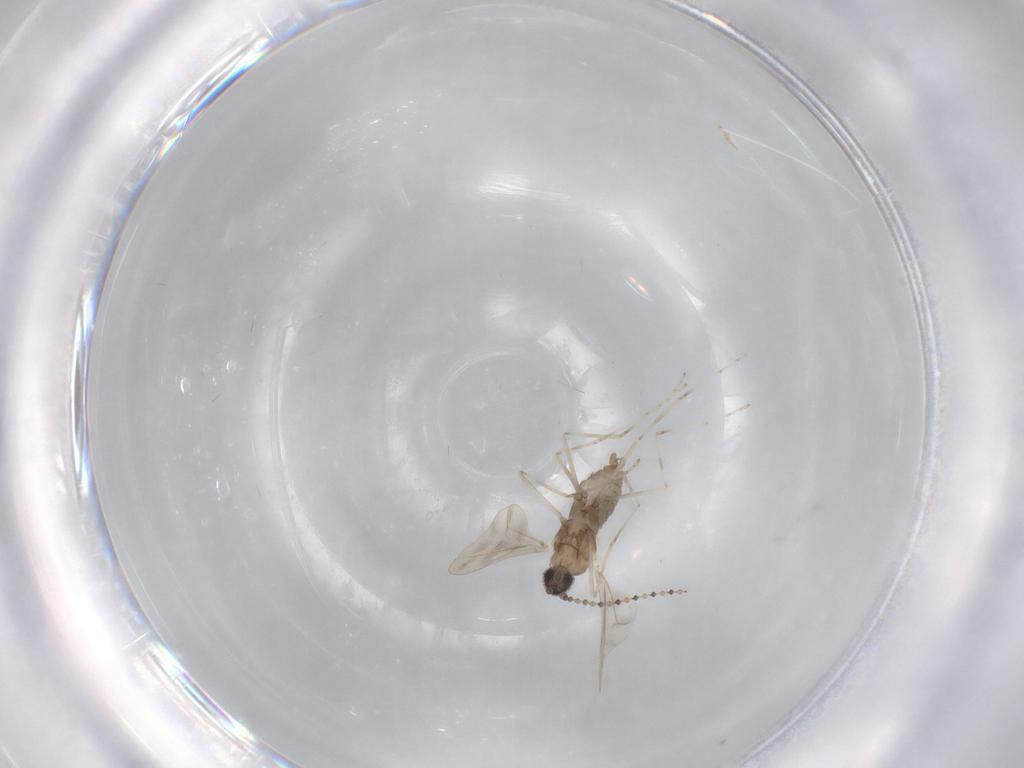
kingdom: Animalia
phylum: Arthropoda
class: Insecta
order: Diptera
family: Cecidomyiidae
